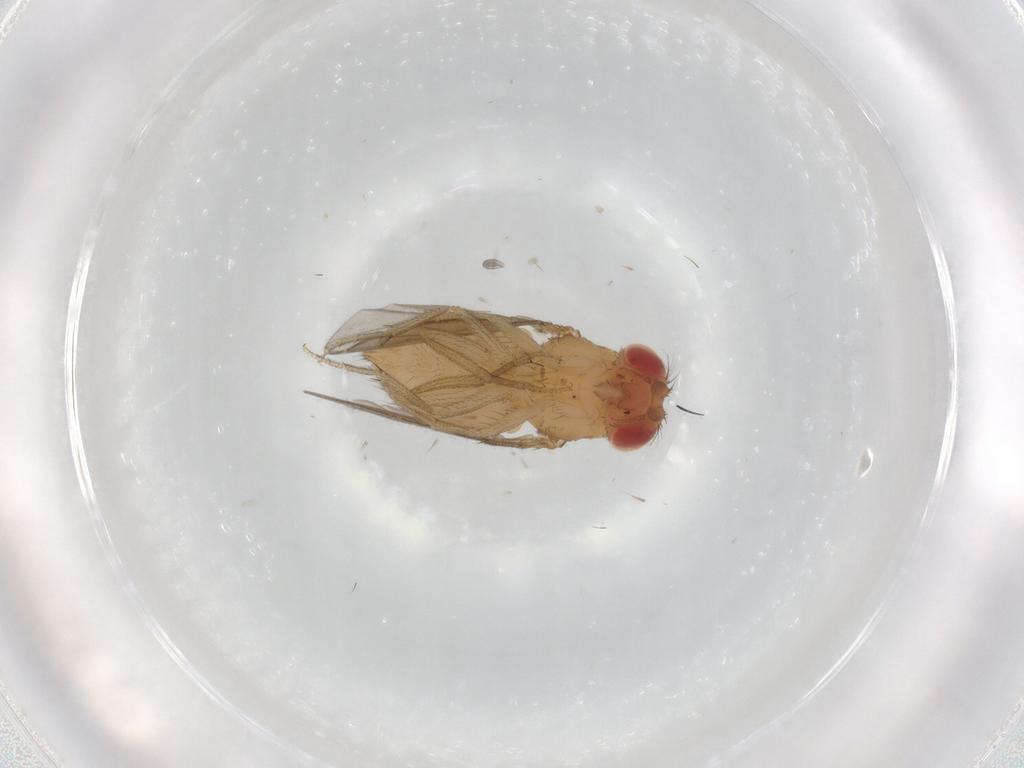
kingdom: Animalia
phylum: Arthropoda
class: Insecta
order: Diptera
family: Drosophilidae
